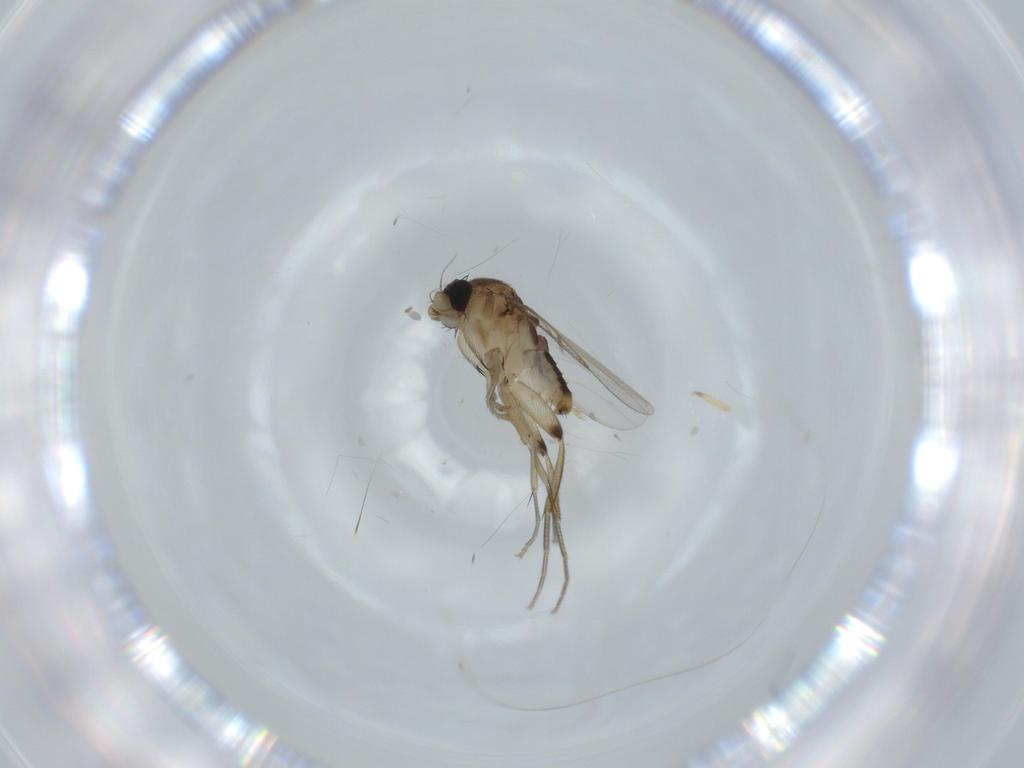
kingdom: Animalia
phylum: Arthropoda
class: Insecta
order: Diptera
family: Phoridae
